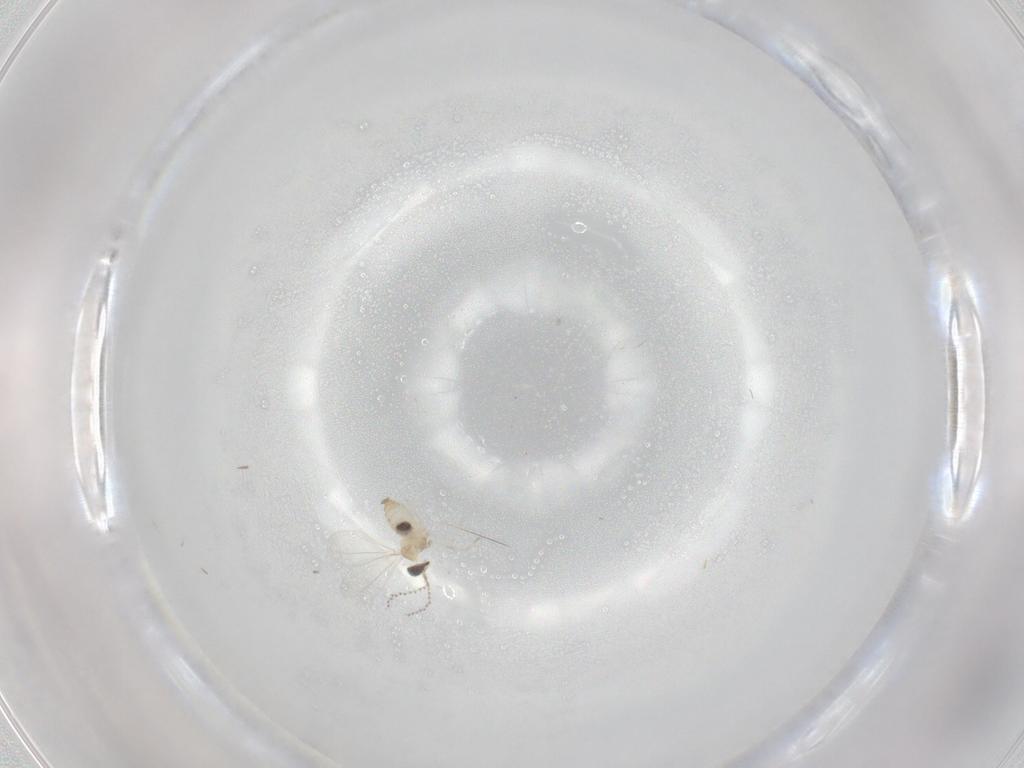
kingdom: Animalia
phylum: Arthropoda
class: Insecta
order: Diptera
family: Cecidomyiidae
